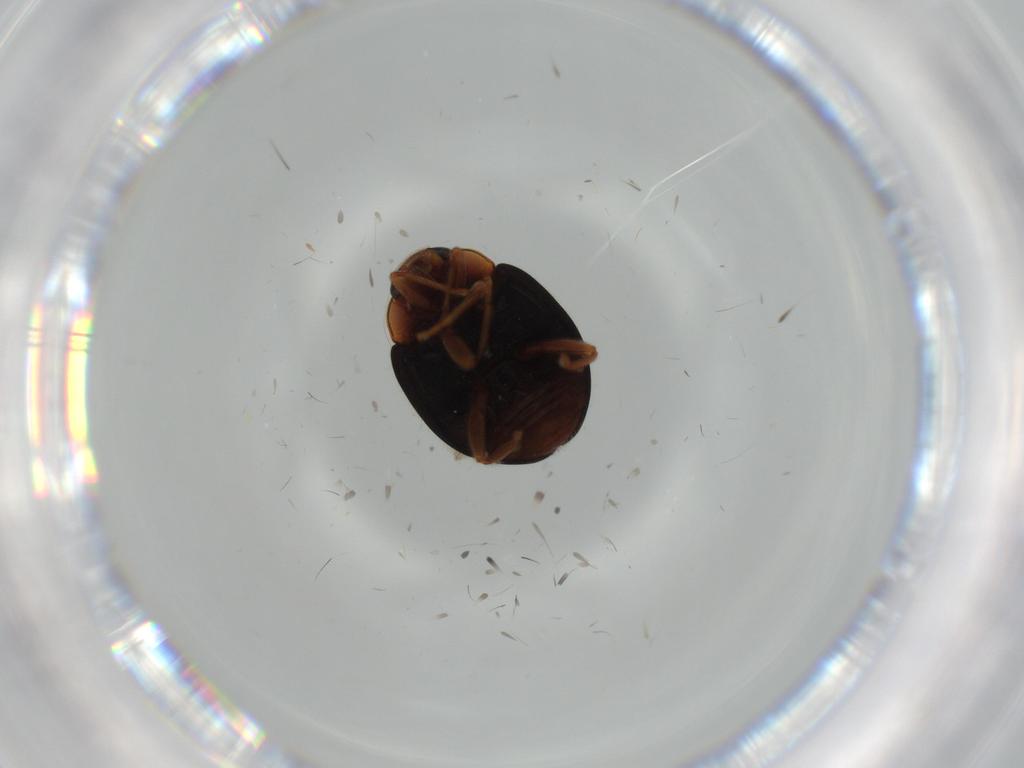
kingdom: Animalia
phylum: Arthropoda
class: Insecta
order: Coleoptera
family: Coccinellidae
